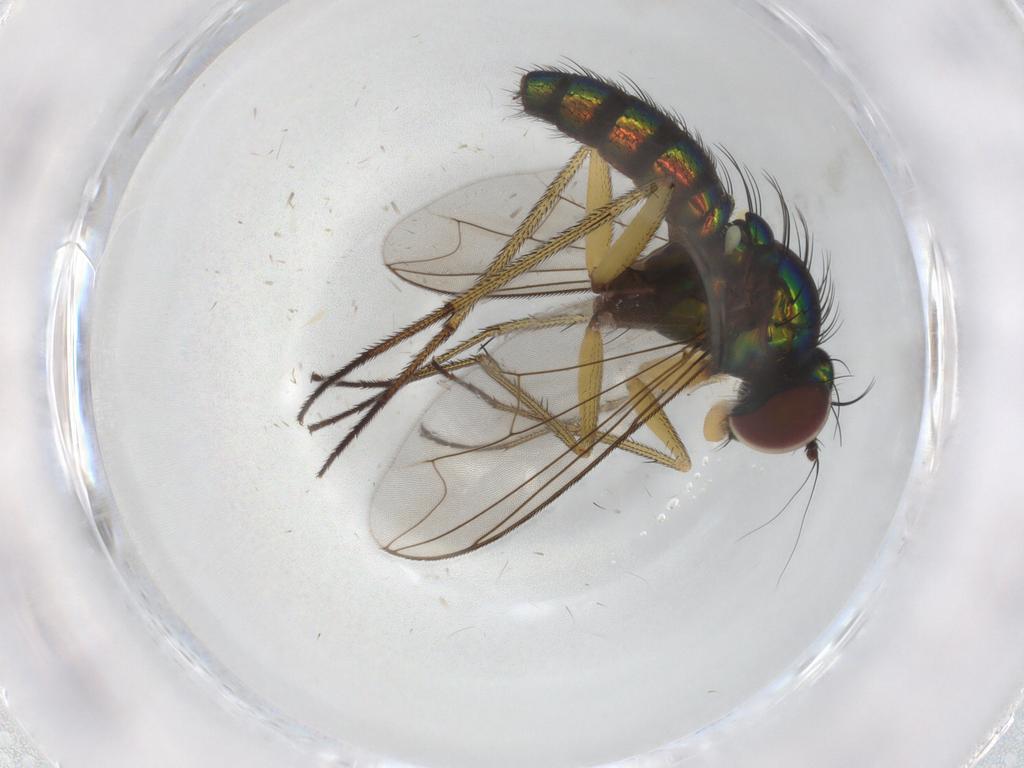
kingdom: Animalia
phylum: Arthropoda
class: Insecta
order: Diptera
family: Dolichopodidae
